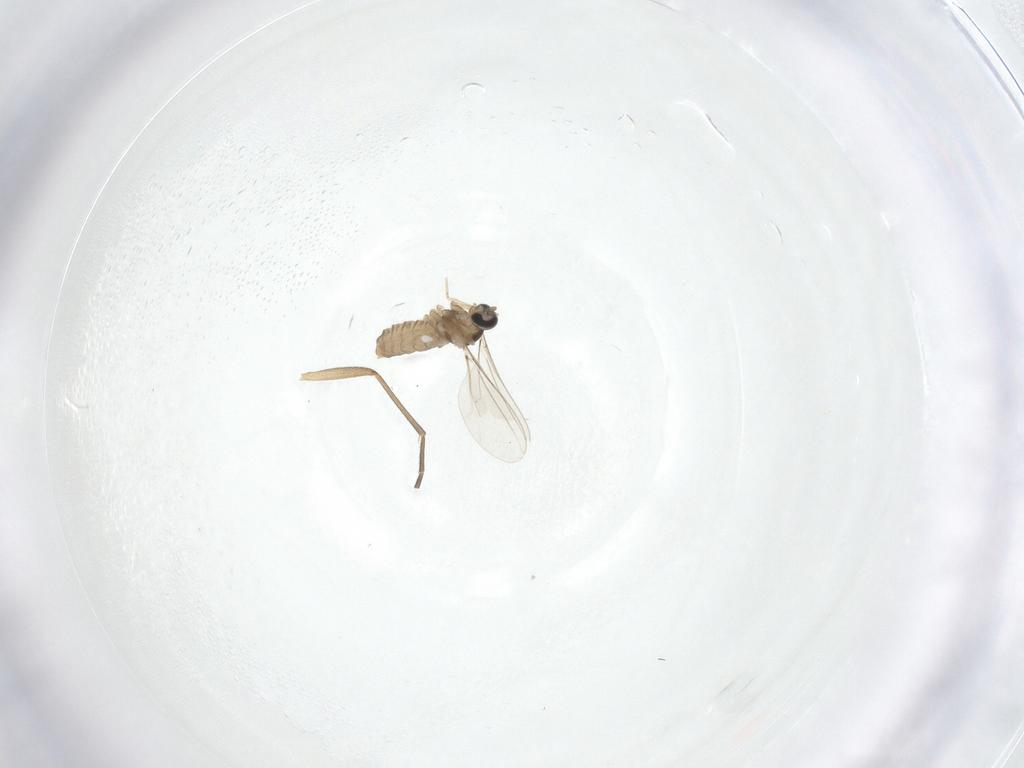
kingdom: Animalia
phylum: Arthropoda
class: Insecta
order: Diptera
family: Cecidomyiidae
